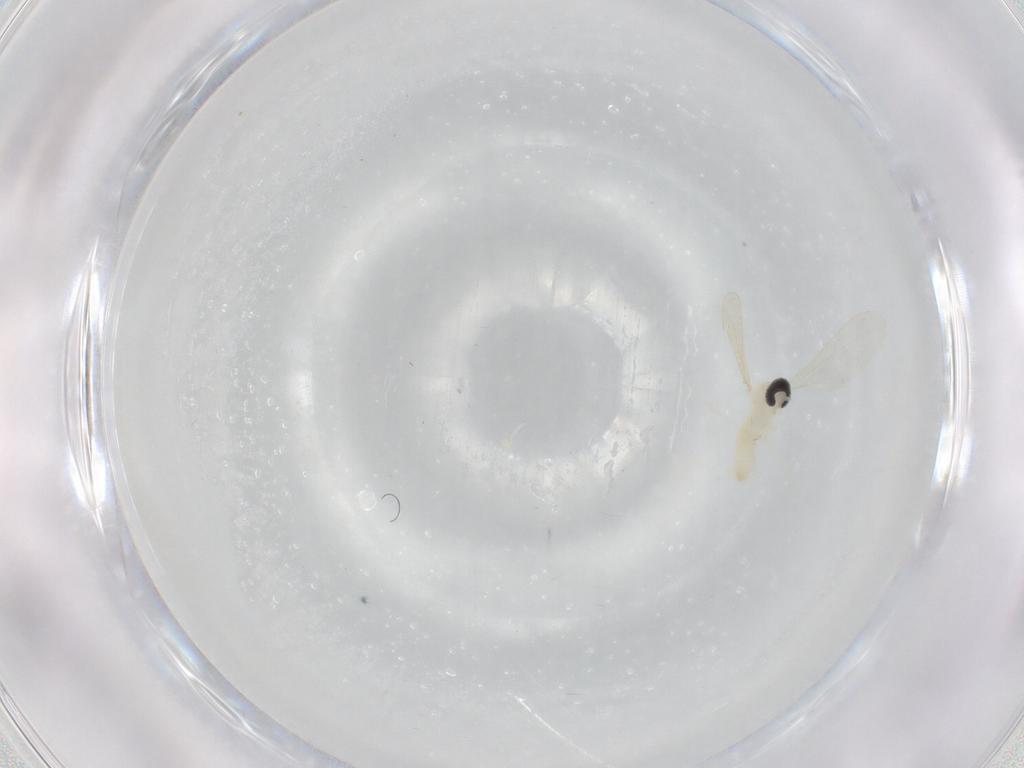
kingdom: Animalia
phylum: Arthropoda
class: Insecta
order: Diptera
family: Cecidomyiidae
